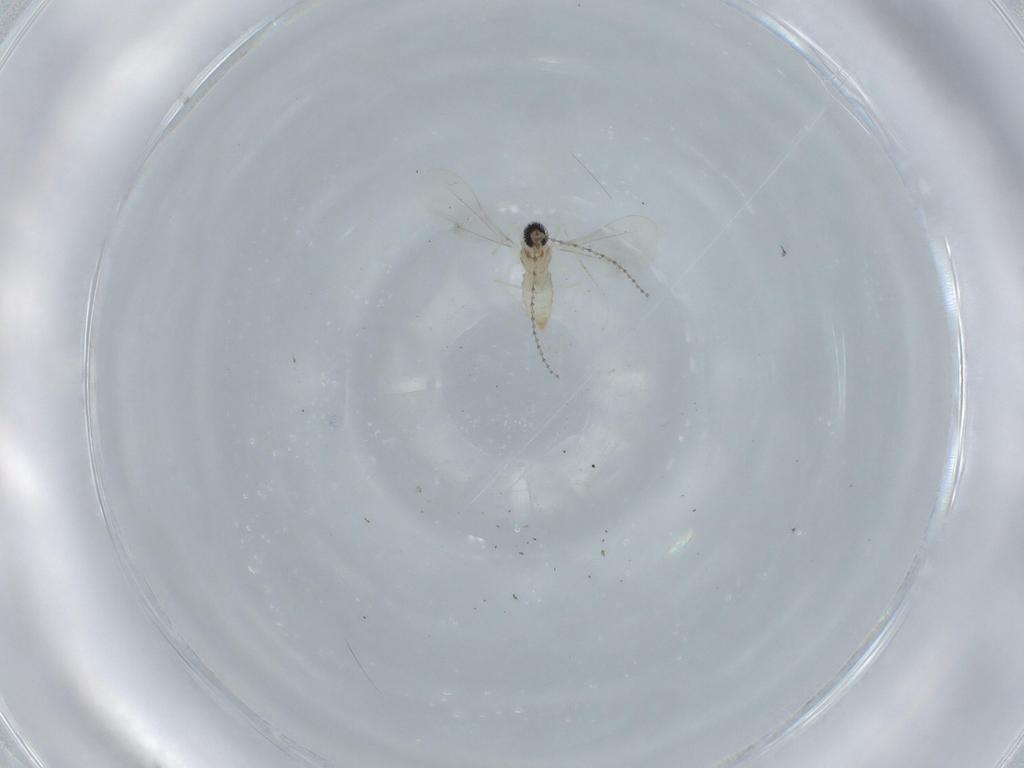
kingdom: Animalia
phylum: Arthropoda
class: Insecta
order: Diptera
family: Cecidomyiidae
